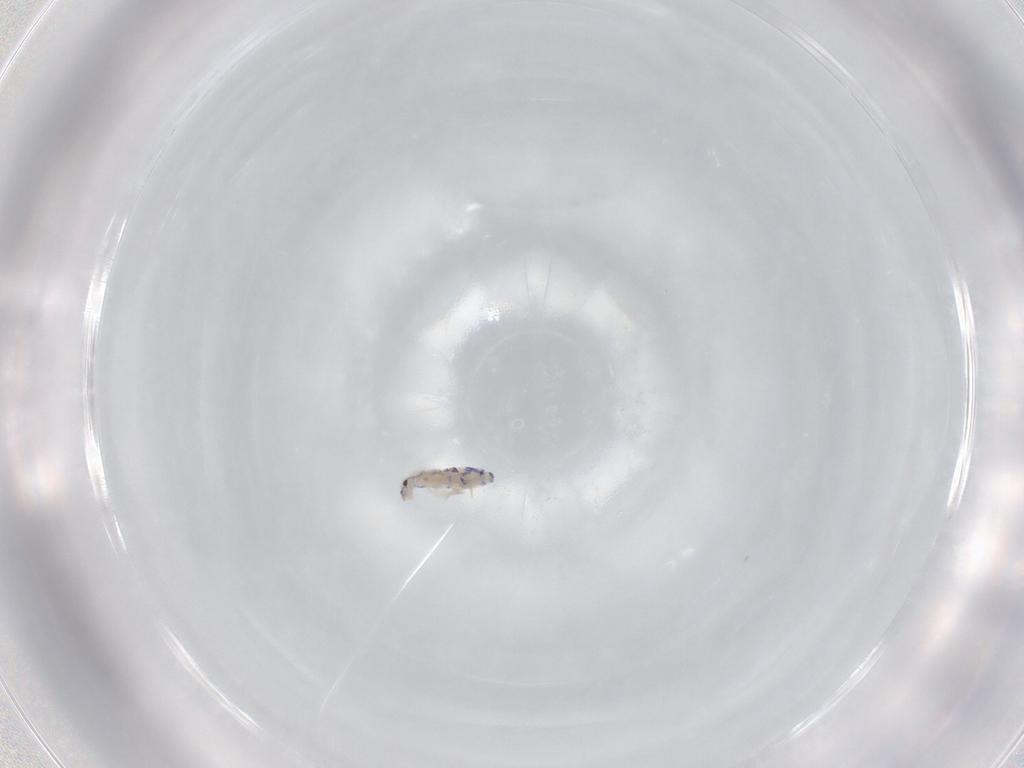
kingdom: Animalia
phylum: Arthropoda
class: Collembola
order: Entomobryomorpha
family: Entomobryidae
